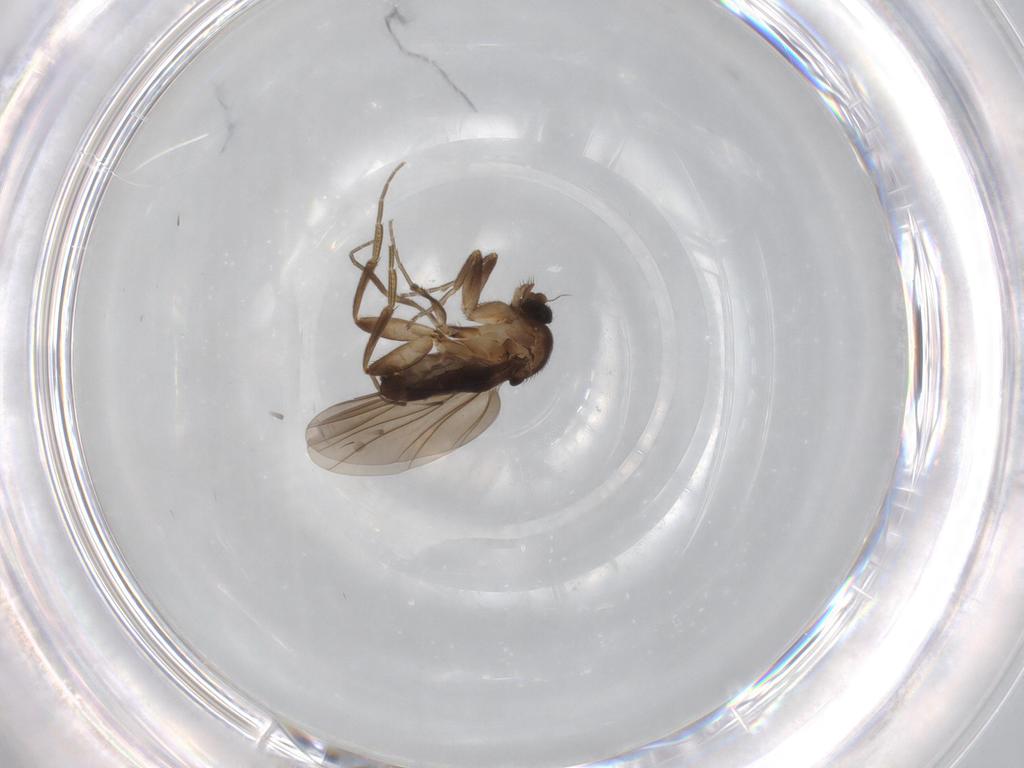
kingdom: Animalia
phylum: Arthropoda
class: Insecta
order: Diptera
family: Limoniidae
